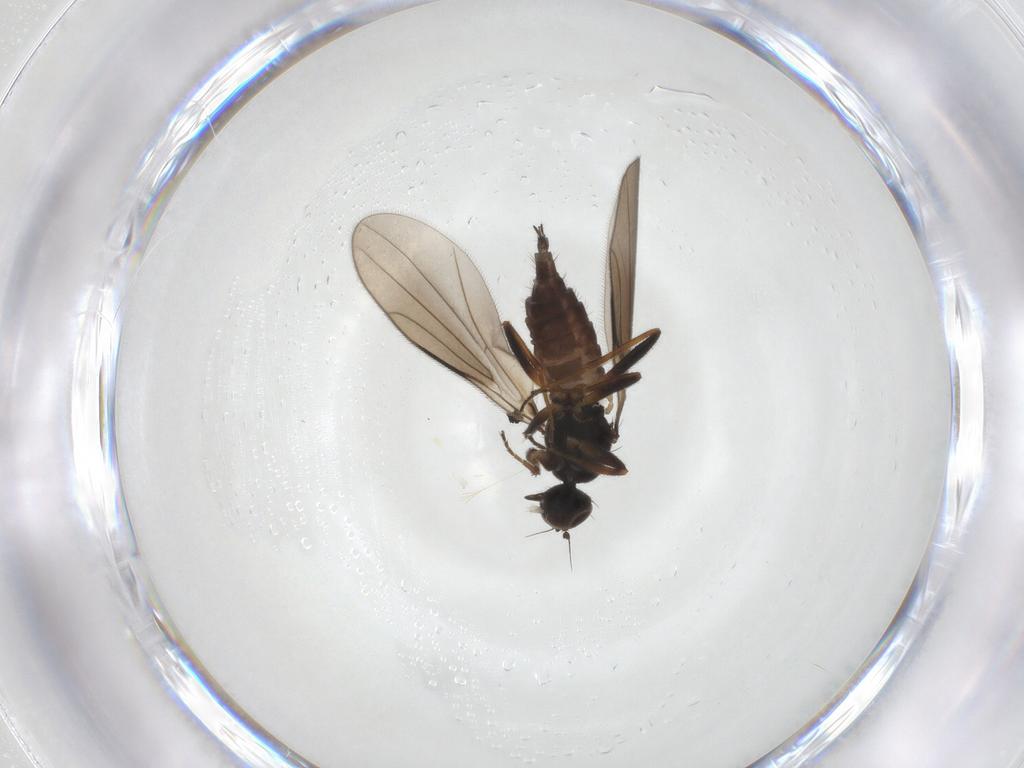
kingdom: Animalia
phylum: Arthropoda
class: Insecta
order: Diptera
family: Hybotidae
